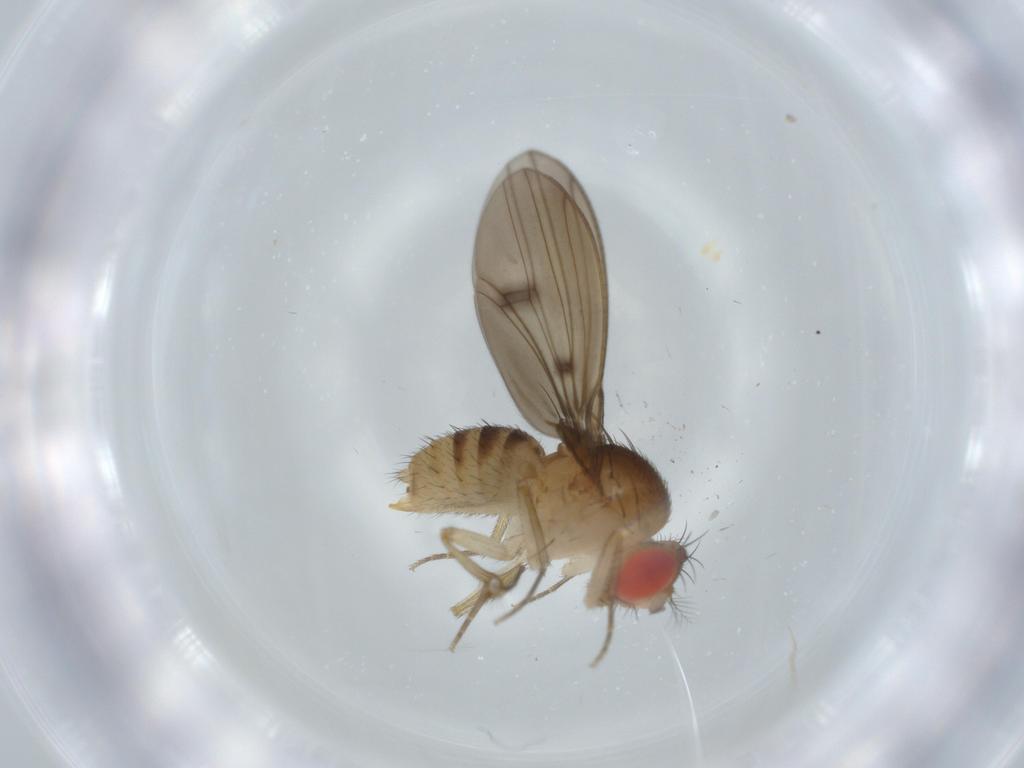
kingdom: Animalia
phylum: Arthropoda
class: Insecta
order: Diptera
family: Drosophilidae
